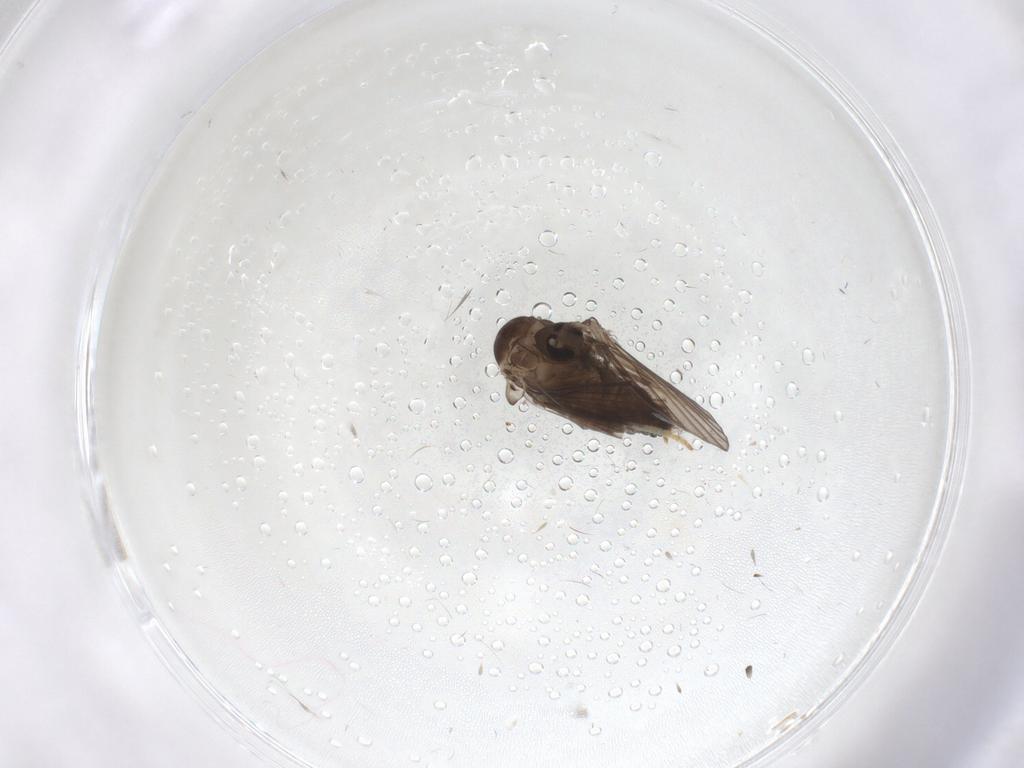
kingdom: Animalia
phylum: Arthropoda
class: Insecta
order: Diptera
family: Psychodidae
